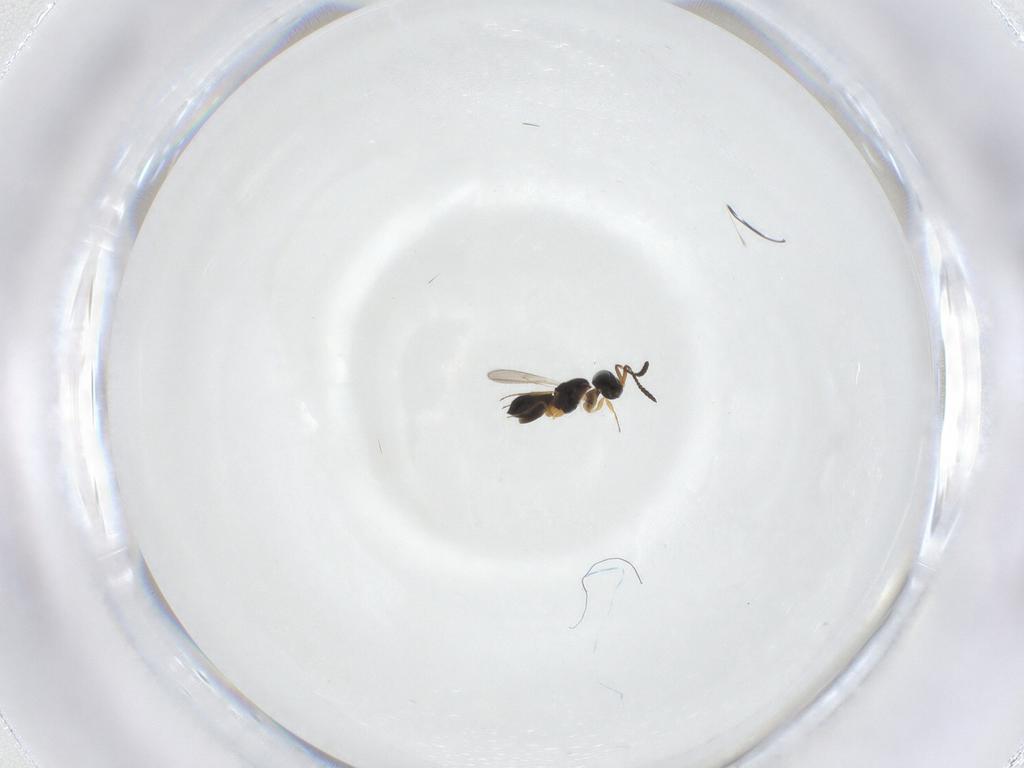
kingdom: Animalia
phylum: Arthropoda
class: Insecta
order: Hymenoptera
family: Scelionidae
